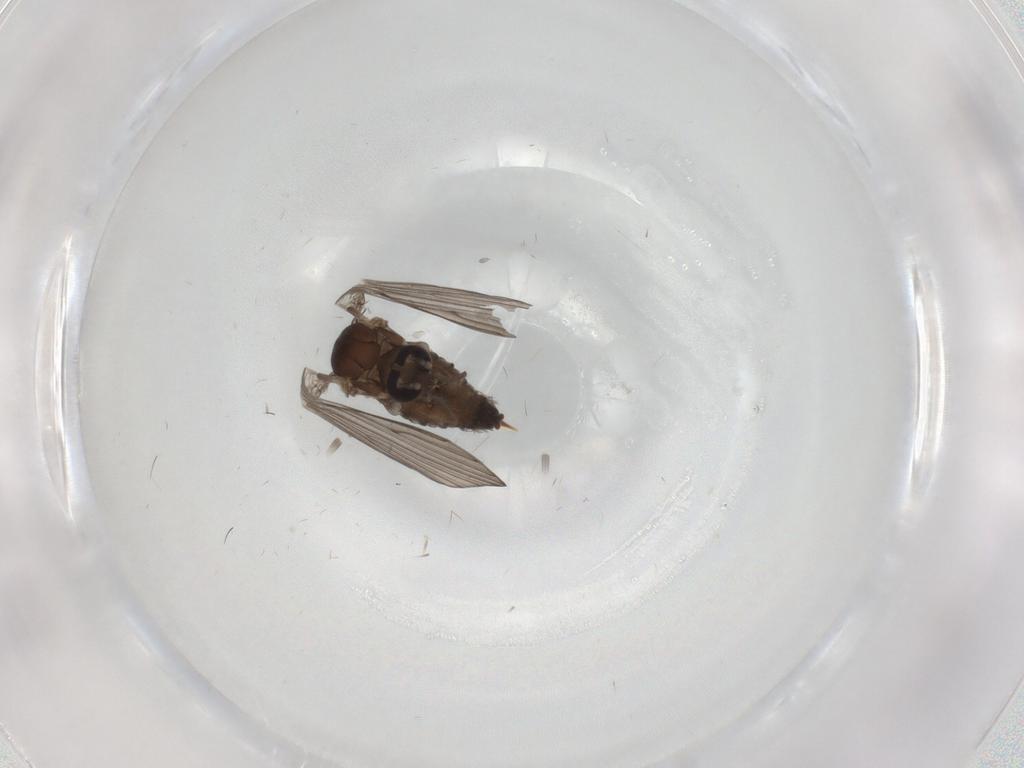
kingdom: Animalia
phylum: Arthropoda
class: Insecta
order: Diptera
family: Psychodidae
